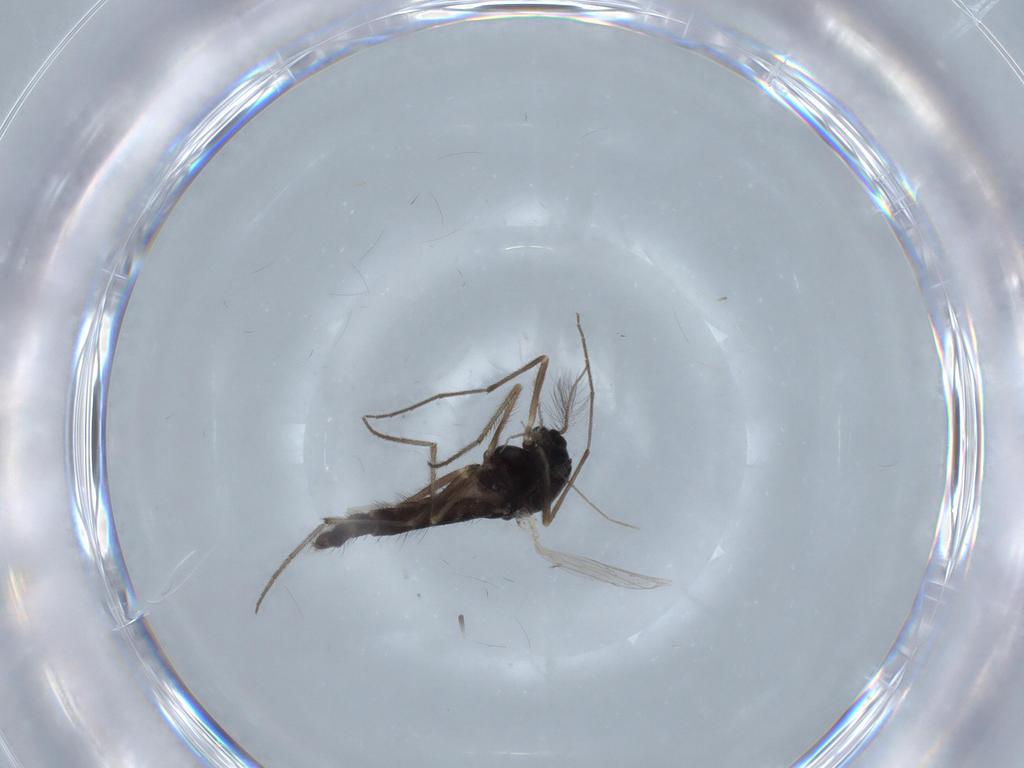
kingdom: Animalia
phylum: Arthropoda
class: Insecta
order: Diptera
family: Chironomidae
